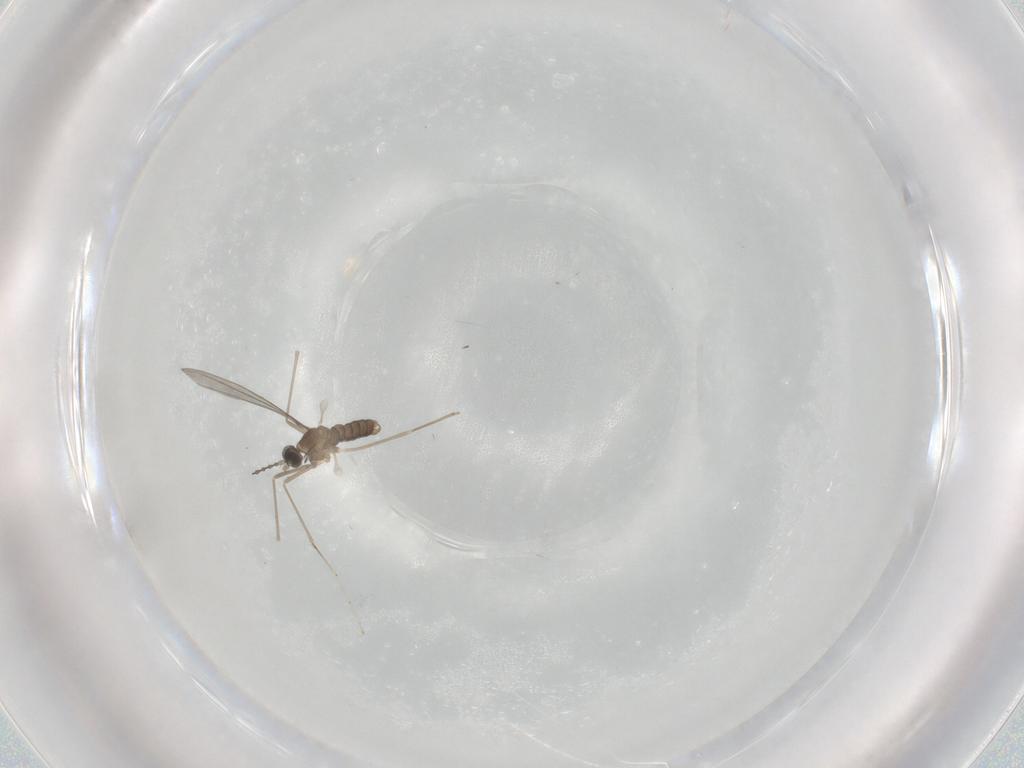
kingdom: Animalia
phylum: Arthropoda
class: Insecta
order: Diptera
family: Cecidomyiidae
